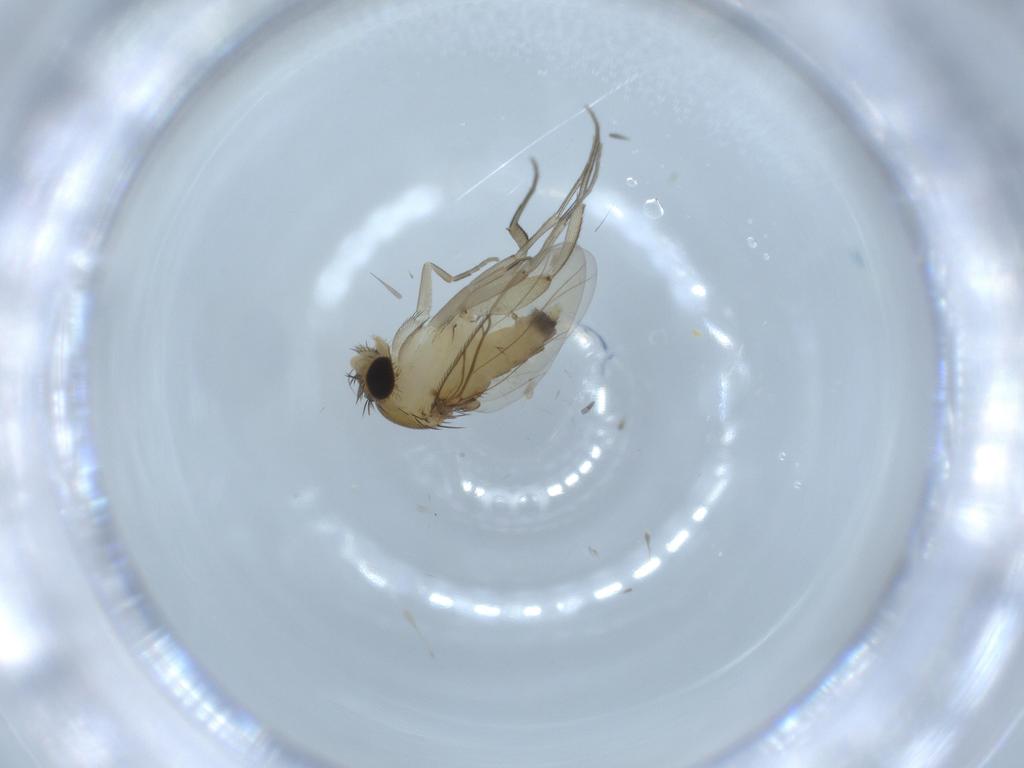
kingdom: Animalia
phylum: Arthropoda
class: Insecta
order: Diptera
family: Phoridae
